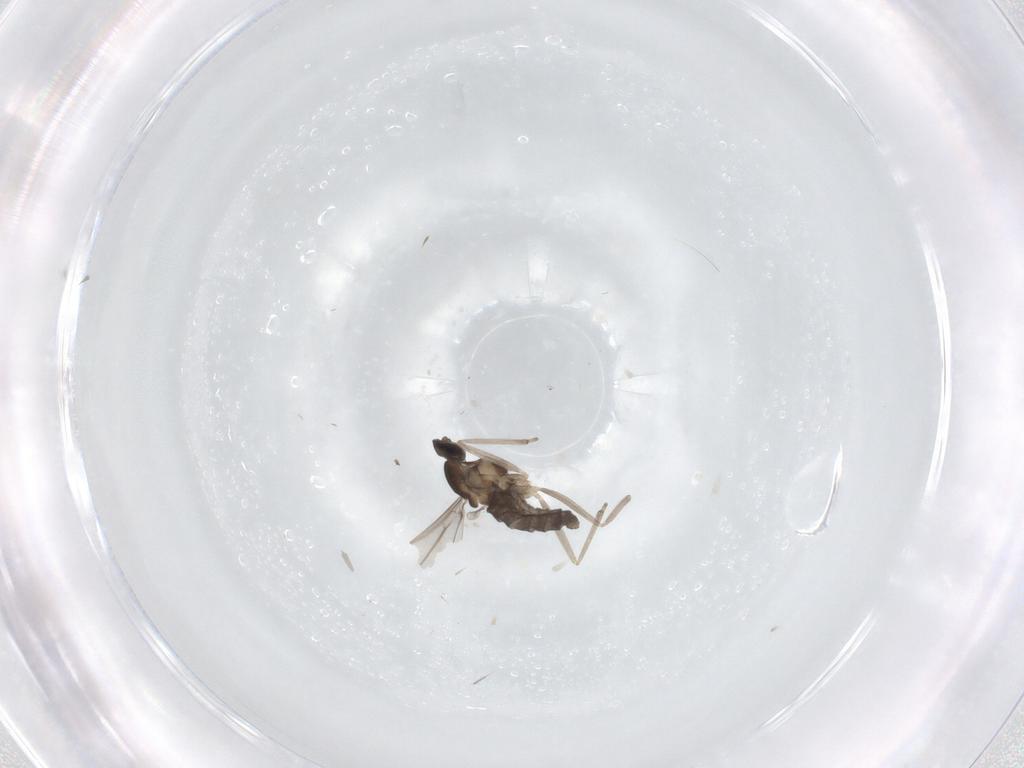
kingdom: Animalia
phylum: Arthropoda
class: Insecta
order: Diptera
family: Cecidomyiidae
